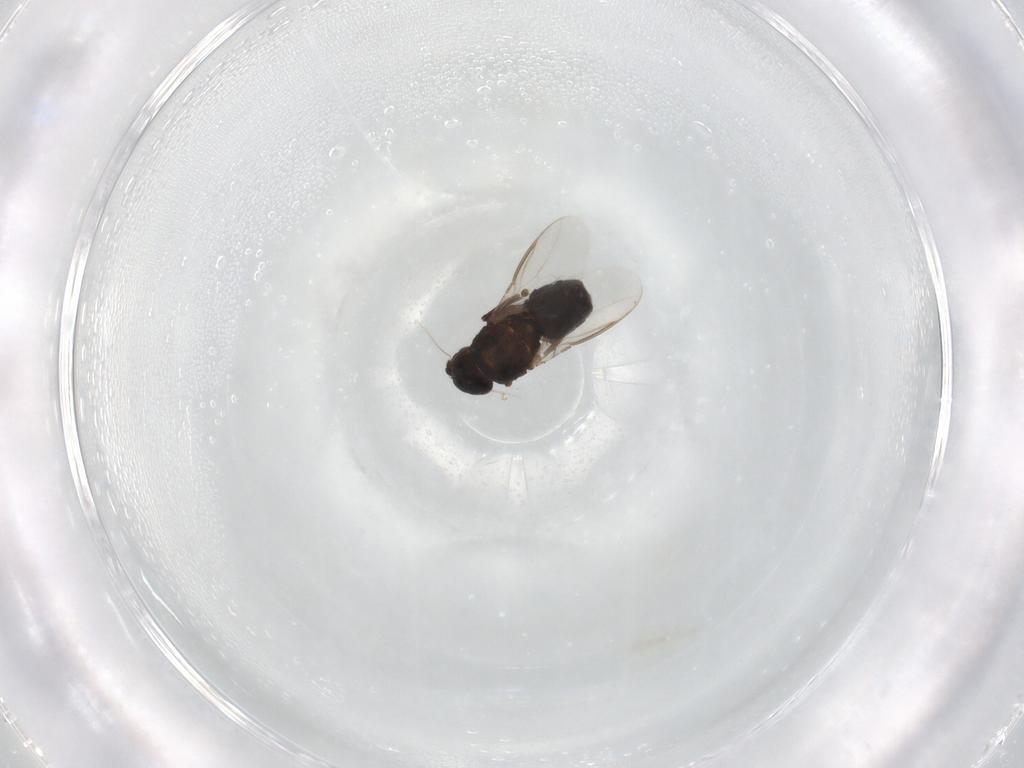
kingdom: Animalia
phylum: Arthropoda
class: Insecta
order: Diptera
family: Sphaeroceridae
